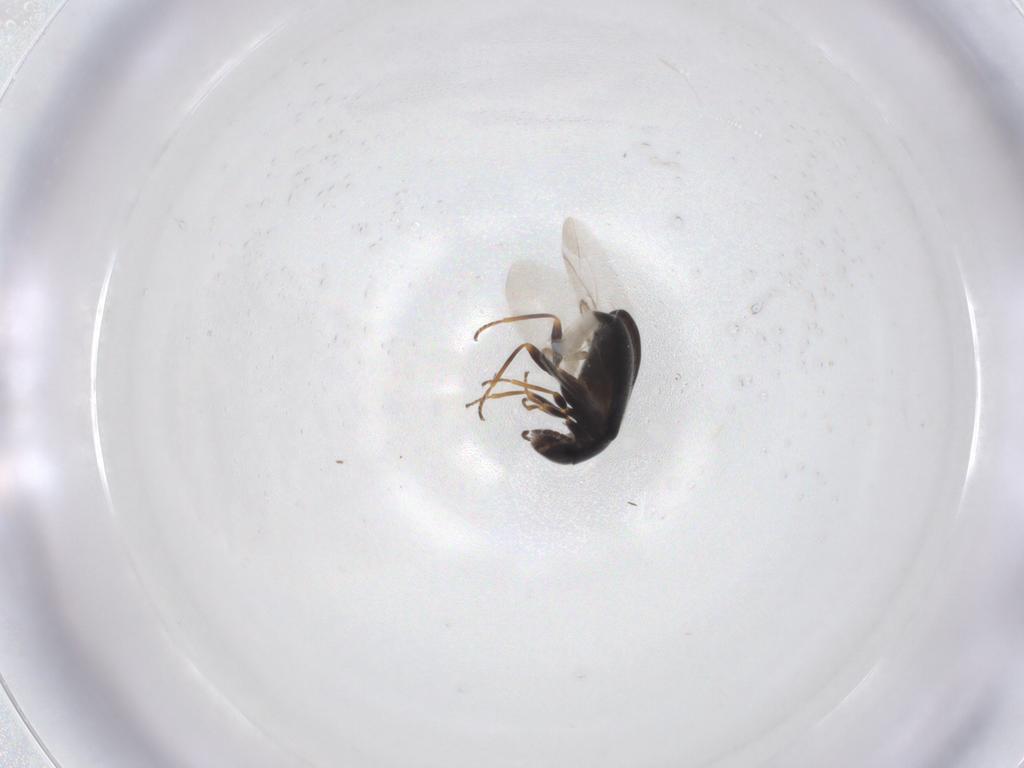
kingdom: Animalia
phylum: Arthropoda
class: Insecta
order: Coleoptera
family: Melyridae
